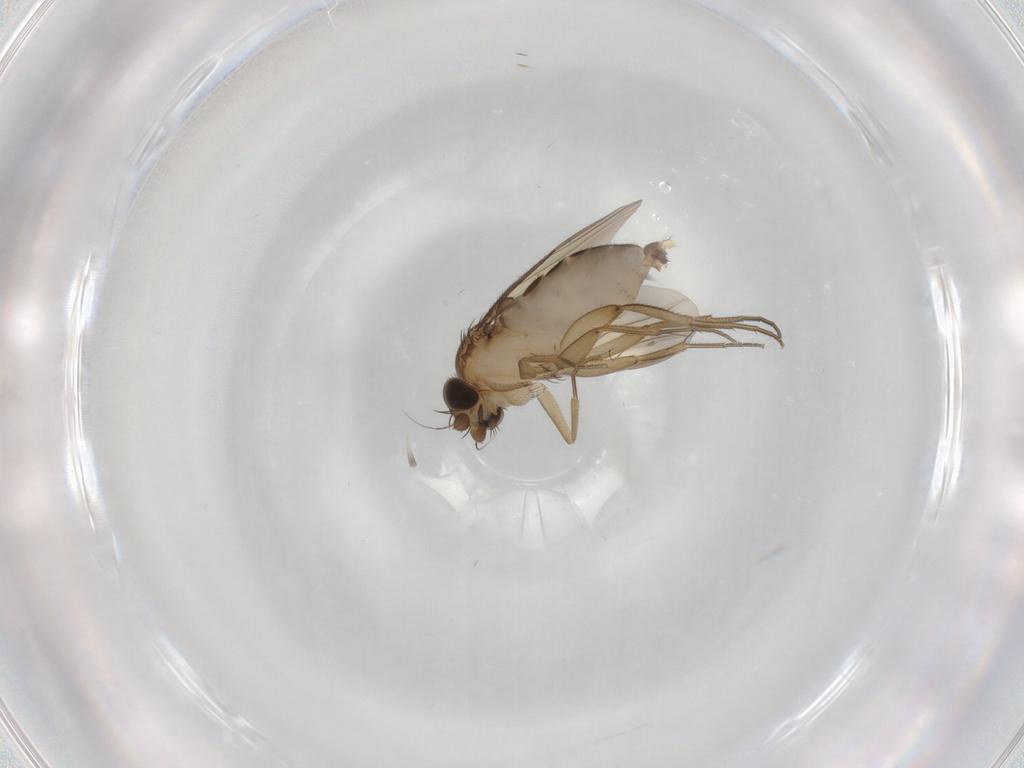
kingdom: Animalia
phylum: Arthropoda
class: Insecta
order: Diptera
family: Phoridae
